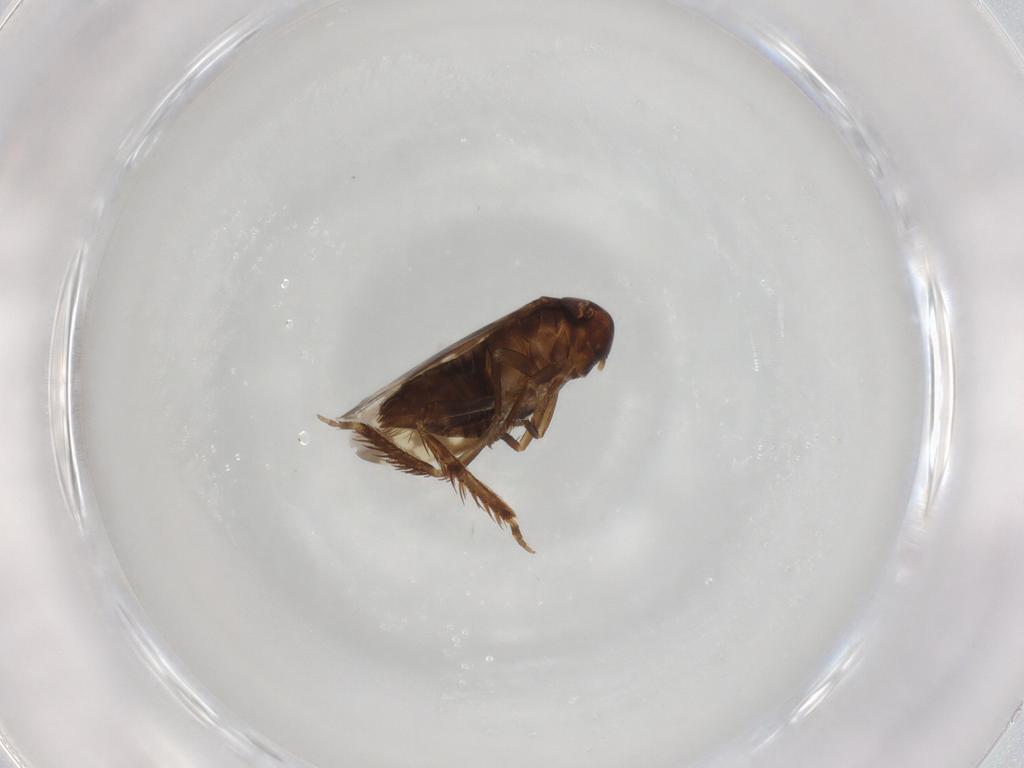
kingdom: Animalia
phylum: Arthropoda
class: Insecta
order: Hemiptera
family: Cicadellidae
